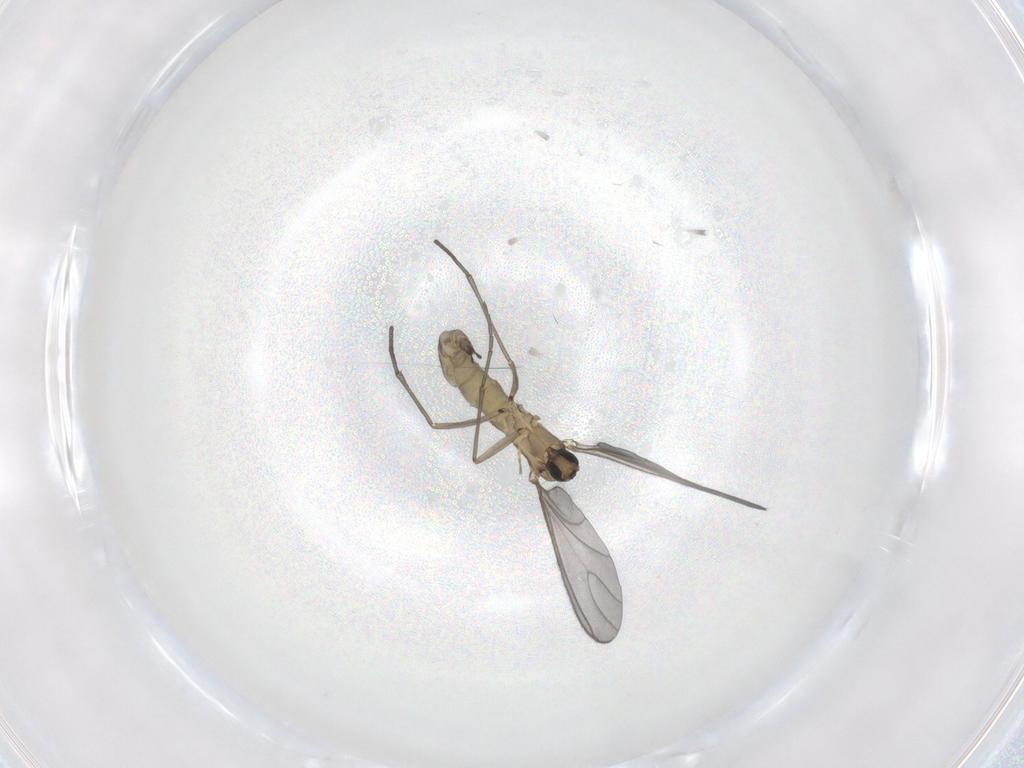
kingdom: Animalia
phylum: Arthropoda
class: Insecta
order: Diptera
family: Sciaridae
